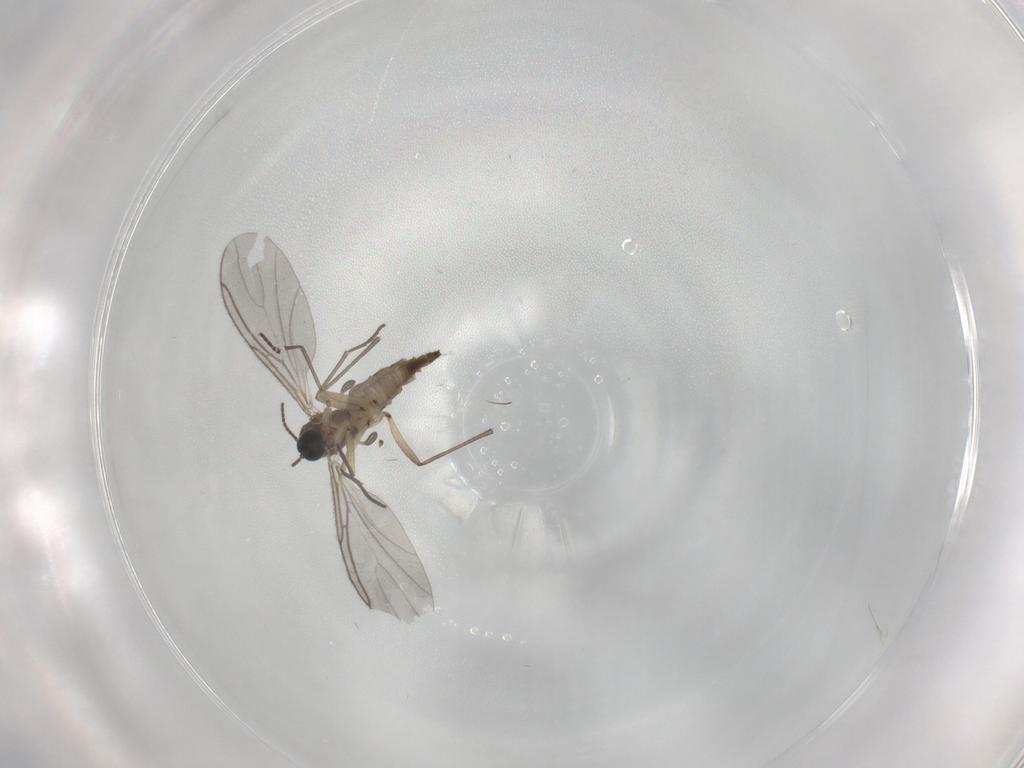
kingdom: Animalia
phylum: Arthropoda
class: Insecta
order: Diptera
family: Sciaridae
